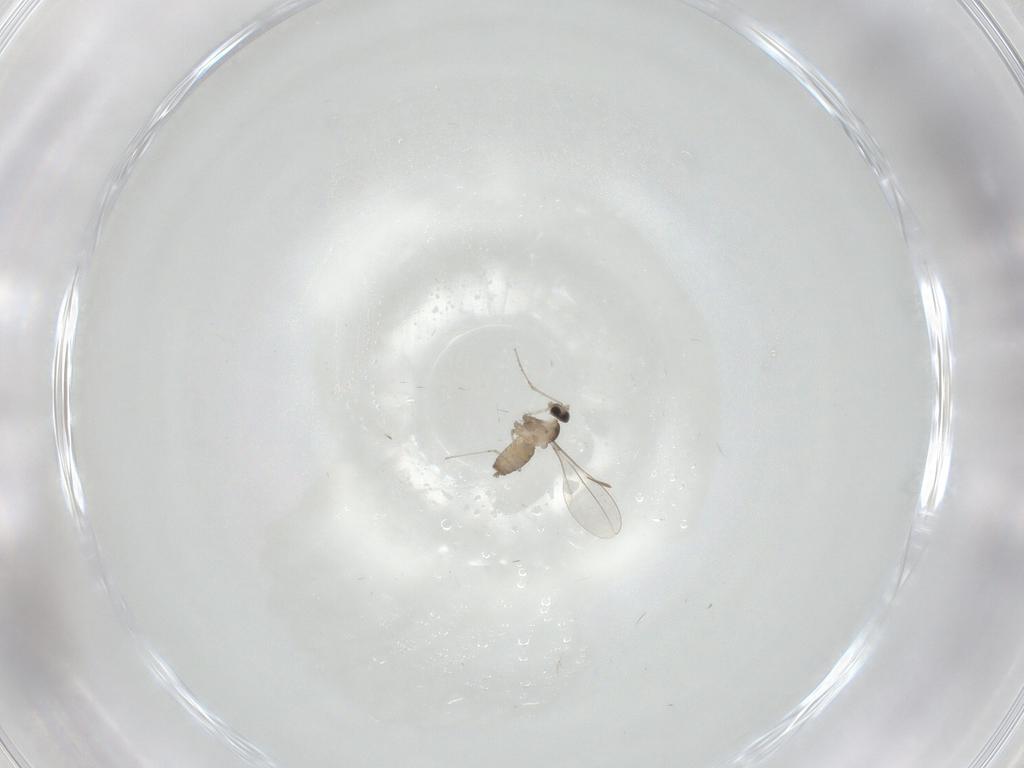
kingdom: Animalia
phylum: Arthropoda
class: Insecta
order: Diptera
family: Cecidomyiidae
